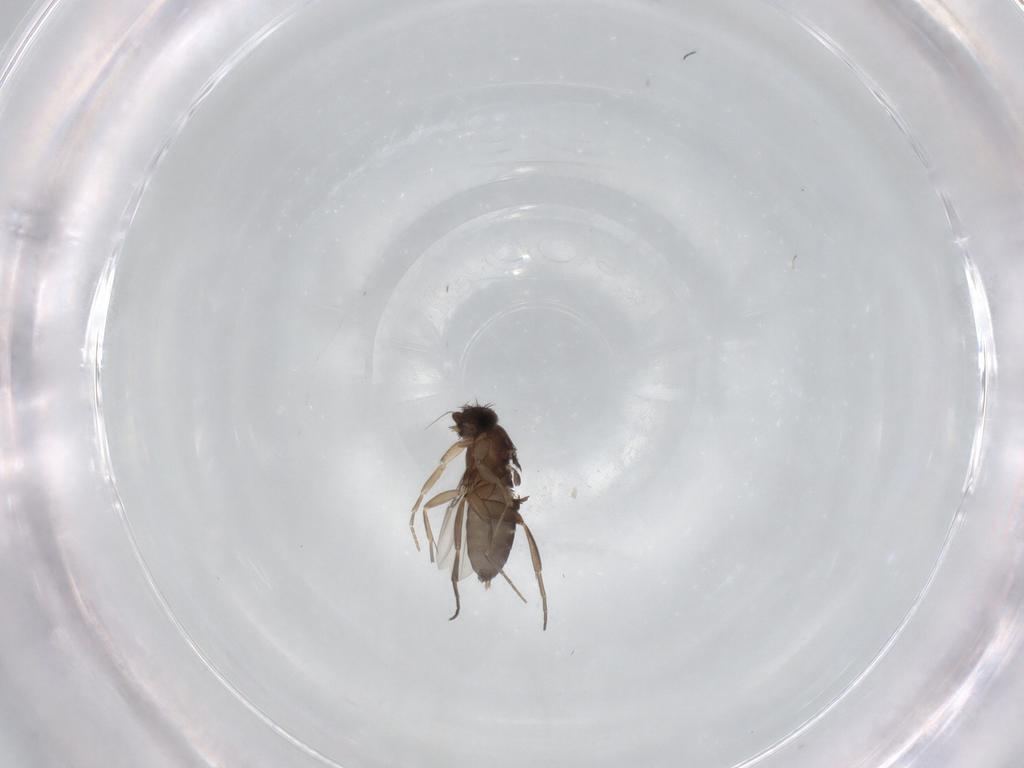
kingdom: Animalia
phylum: Arthropoda
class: Insecta
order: Diptera
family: Phoridae
